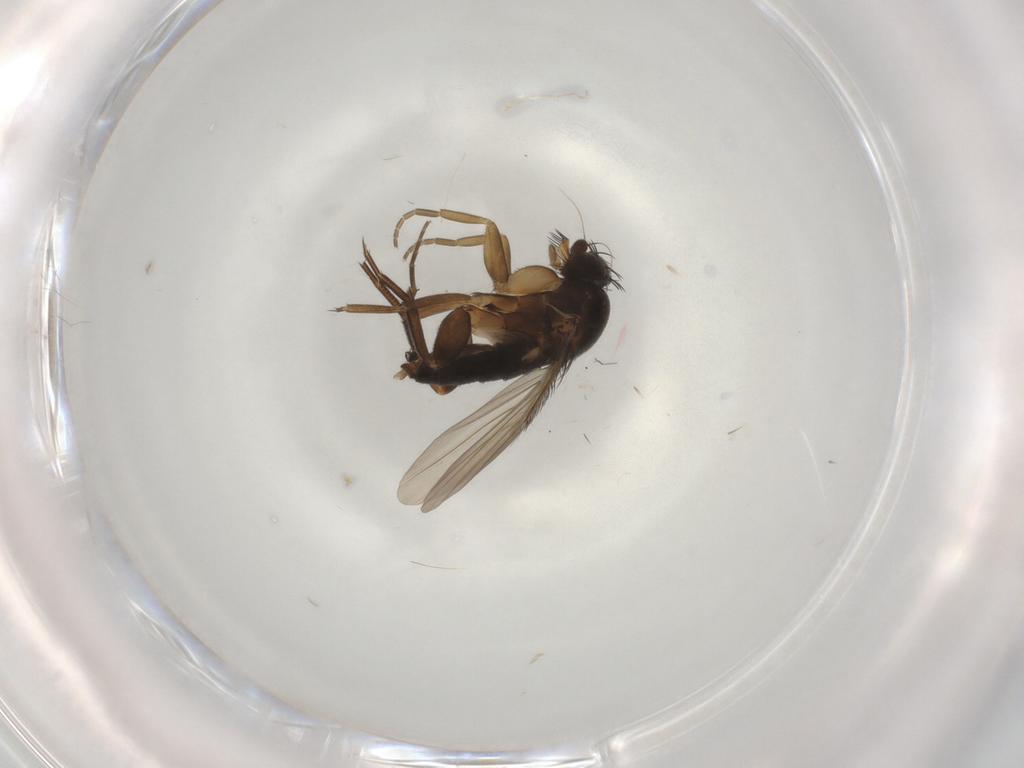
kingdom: Animalia
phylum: Arthropoda
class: Insecta
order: Diptera
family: Phoridae
